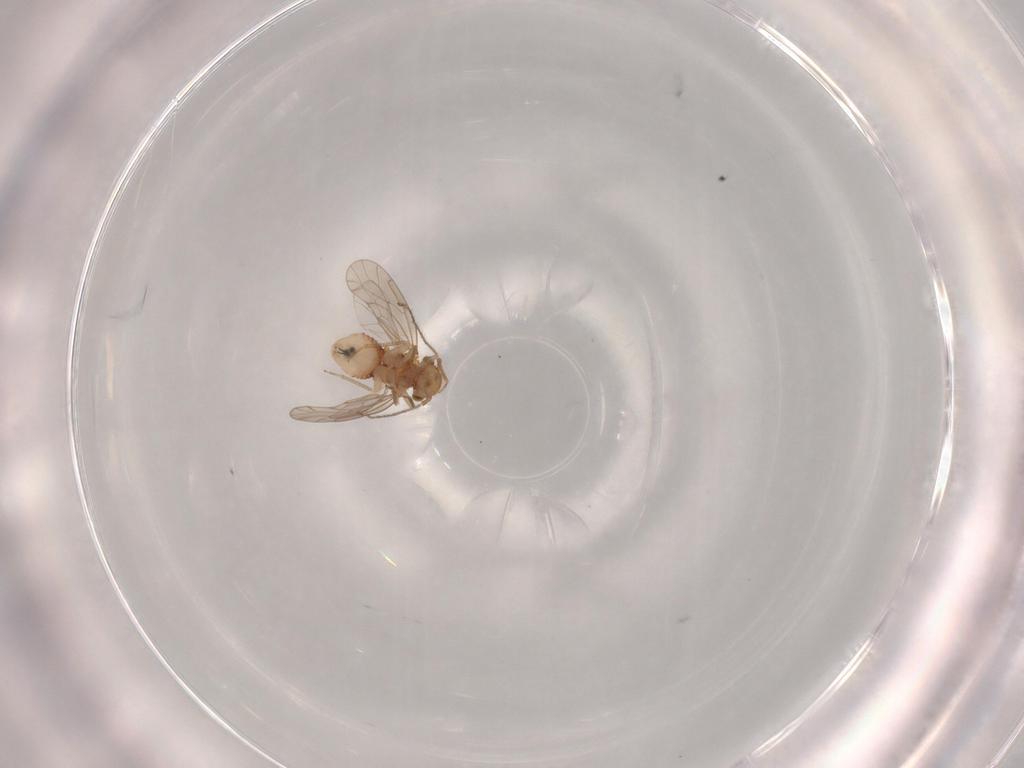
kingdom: Animalia
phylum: Arthropoda
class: Insecta
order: Psocodea
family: Ectopsocidae
